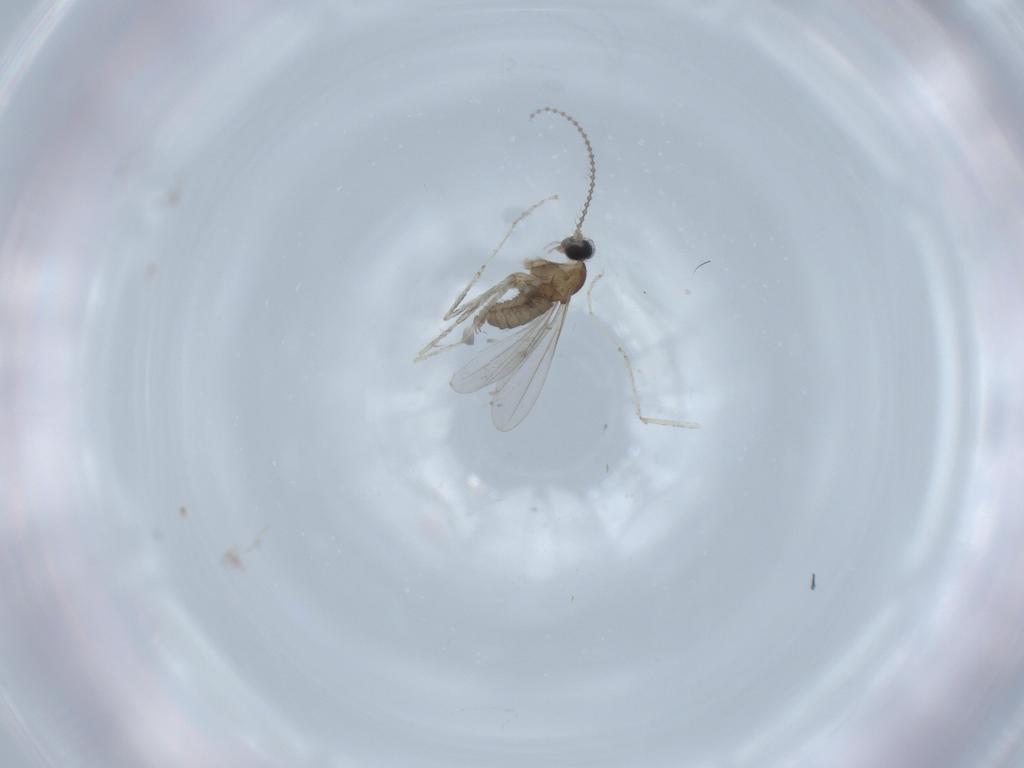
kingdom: Animalia
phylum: Arthropoda
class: Insecta
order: Diptera
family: Cecidomyiidae
